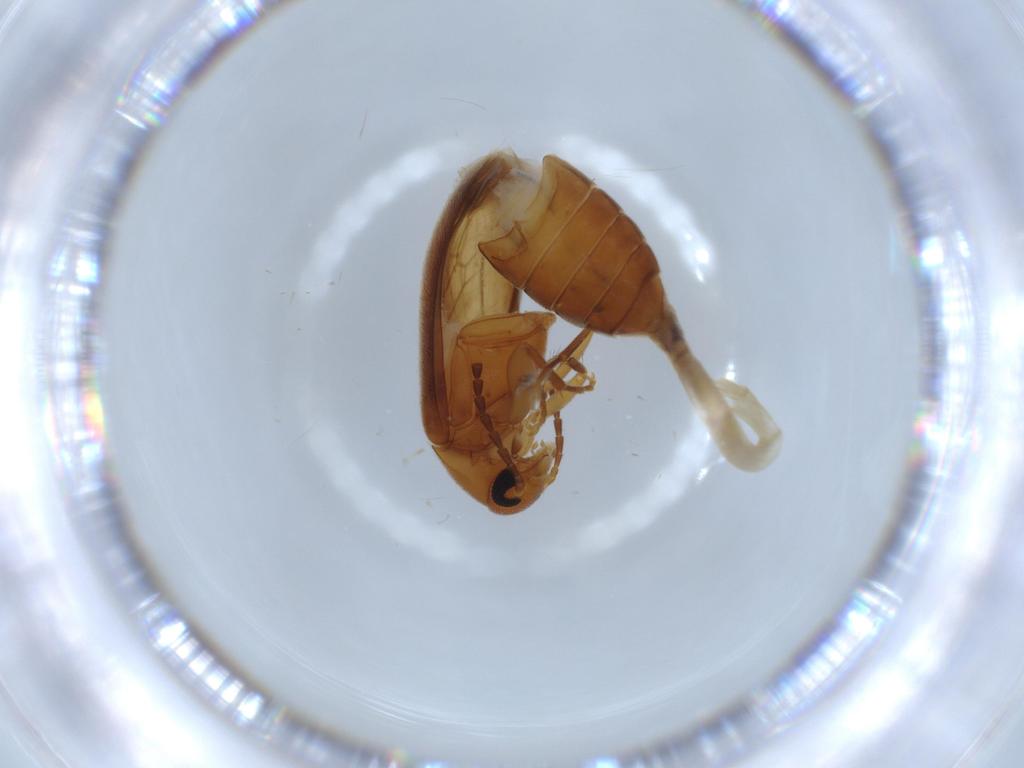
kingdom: Animalia
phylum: Arthropoda
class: Insecta
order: Coleoptera
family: Scraptiidae
